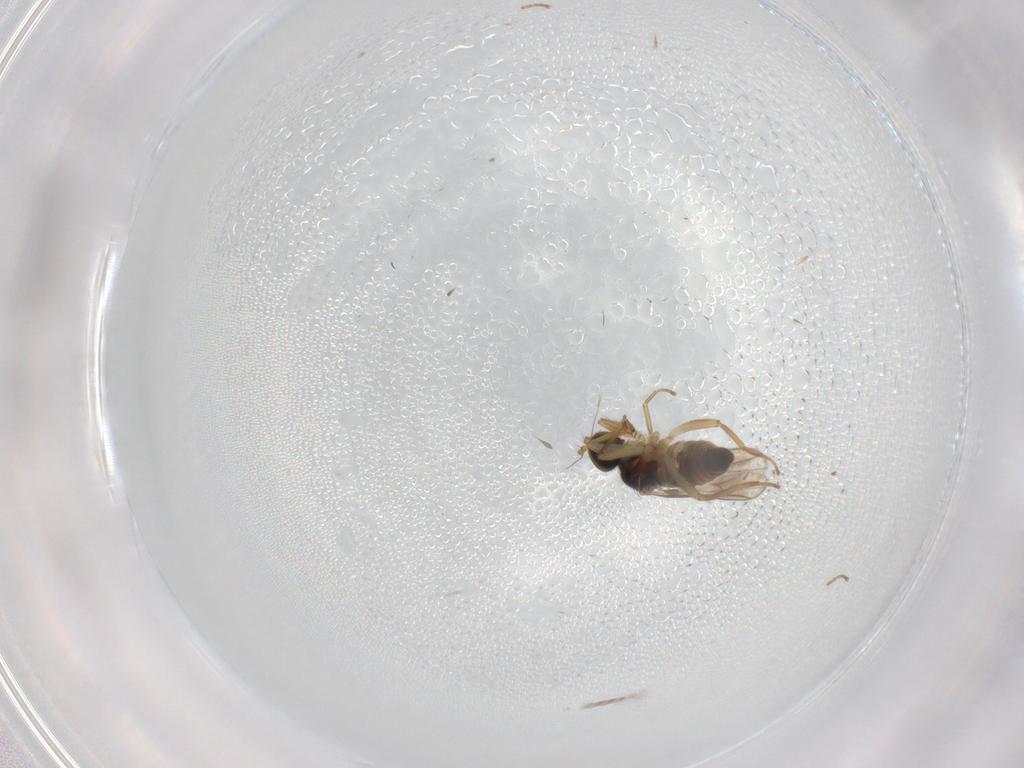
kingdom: Animalia
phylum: Arthropoda
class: Insecta
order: Diptera
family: Hybotidae
